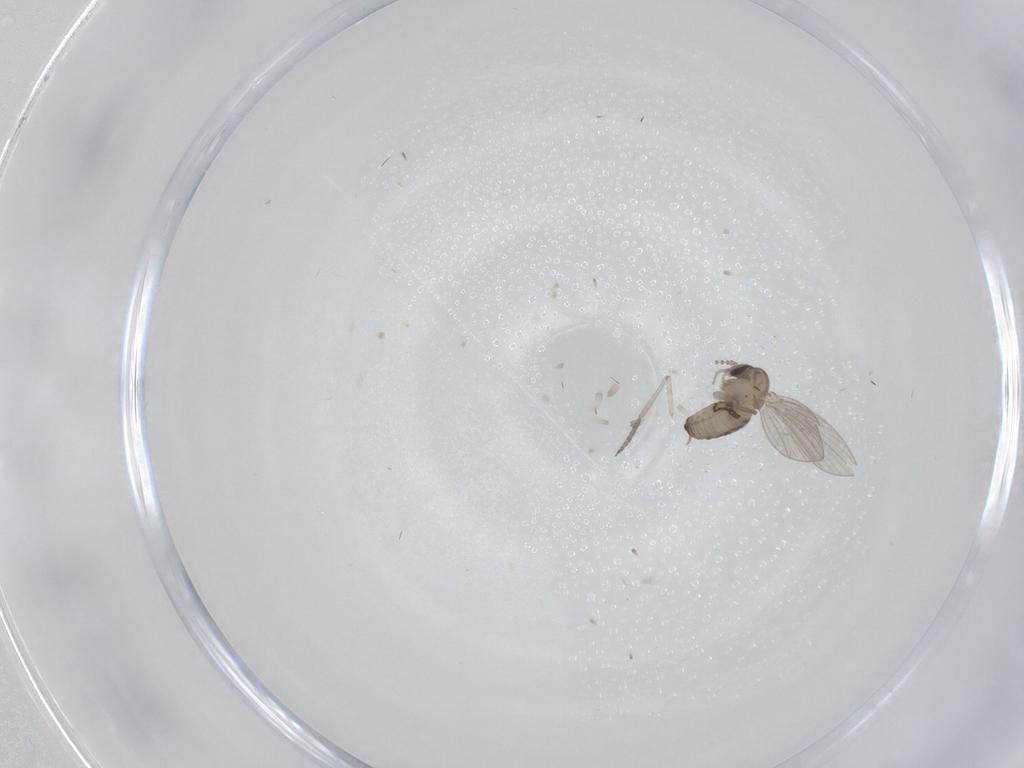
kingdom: Animalia
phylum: Arthropoda
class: Insecta
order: Diptera
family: Psychodidae
